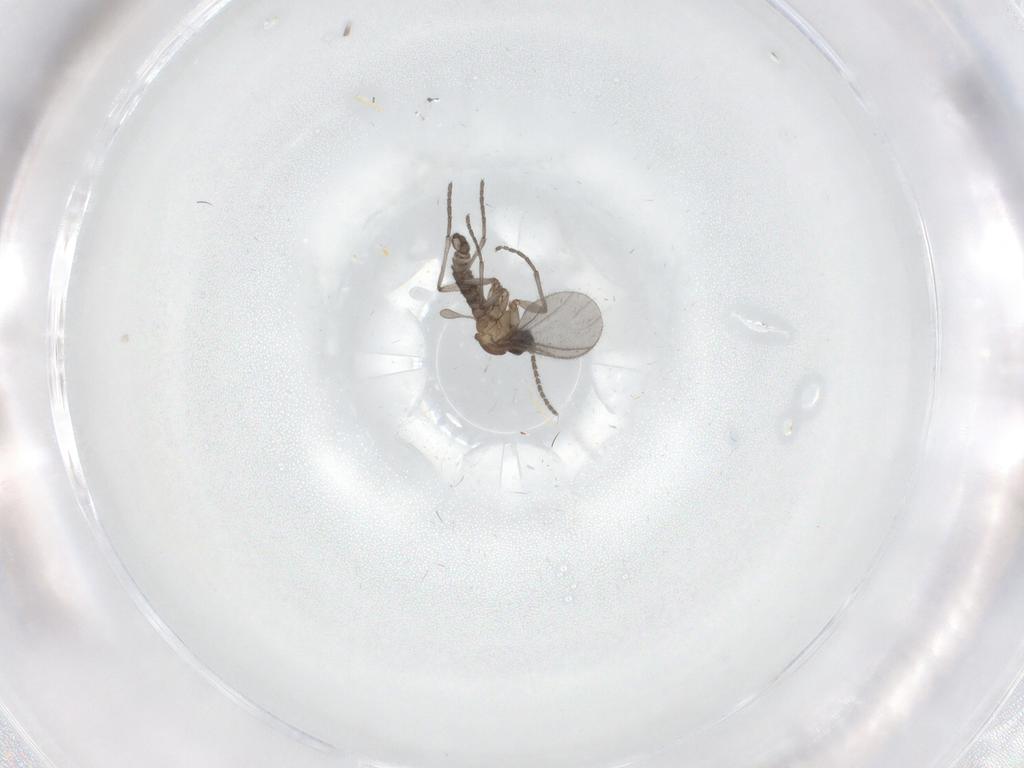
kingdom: Animalia
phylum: Arthropoda
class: Insecta
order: Diptera
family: Sciaridae
